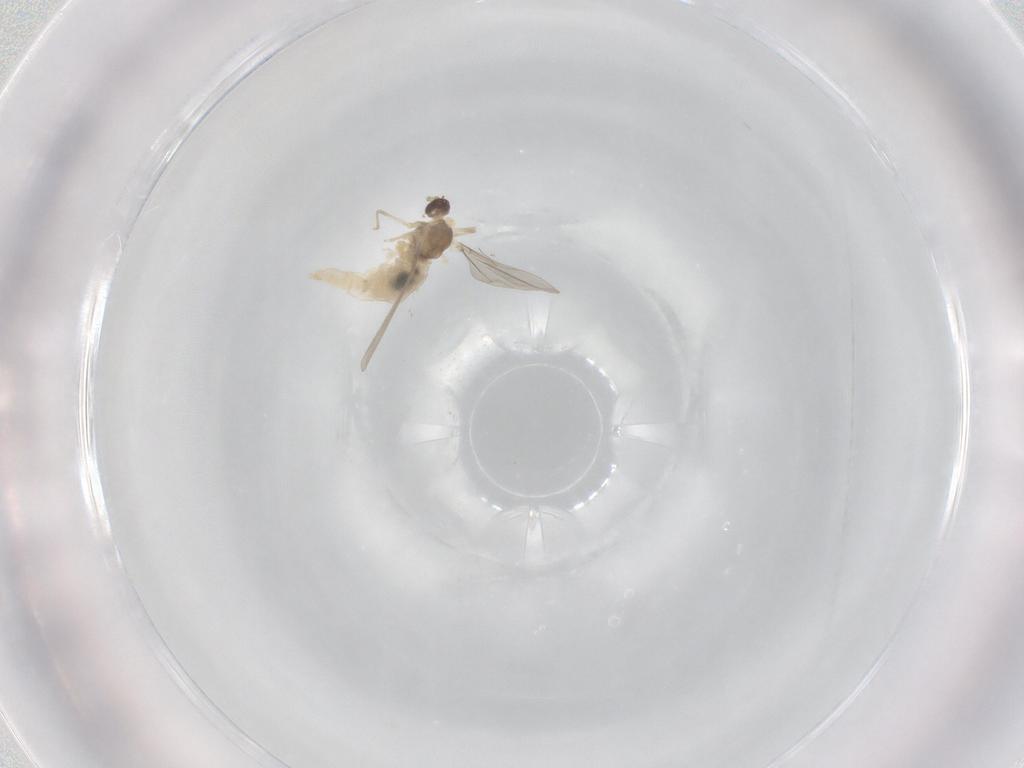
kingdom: Animalia
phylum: Arthropoda
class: Insecta
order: Diptera
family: Cecidomyiidae
